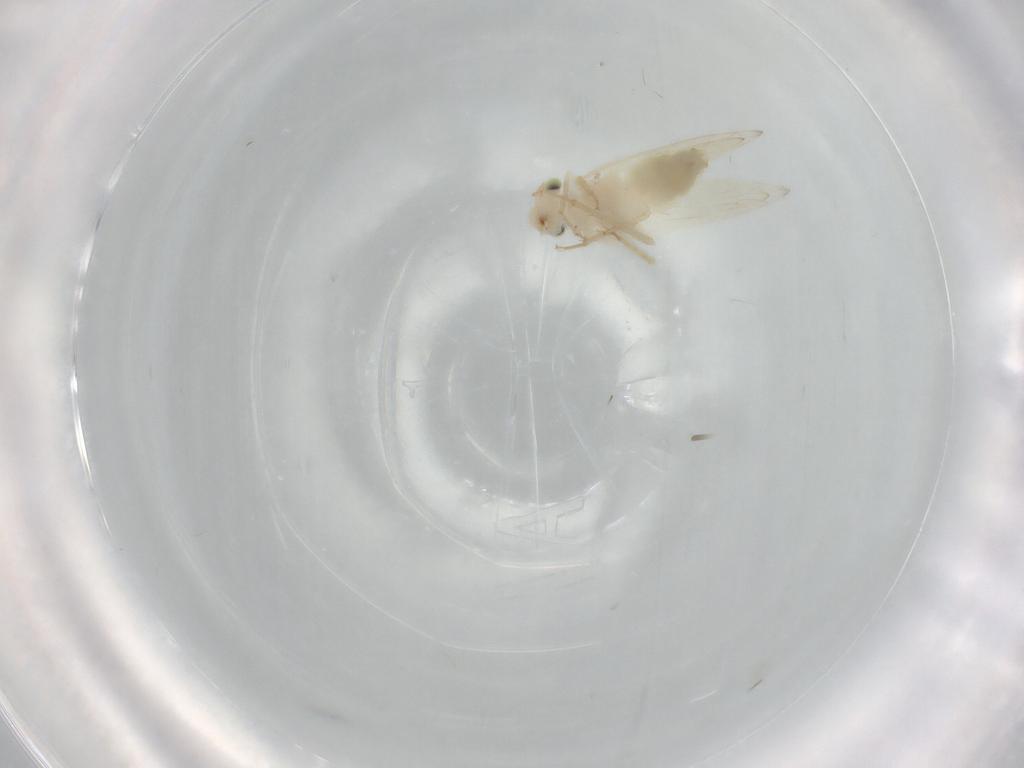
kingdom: Animalia
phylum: Arthropoda
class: Insecta
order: Psocodea
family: Lepidopsocidae
